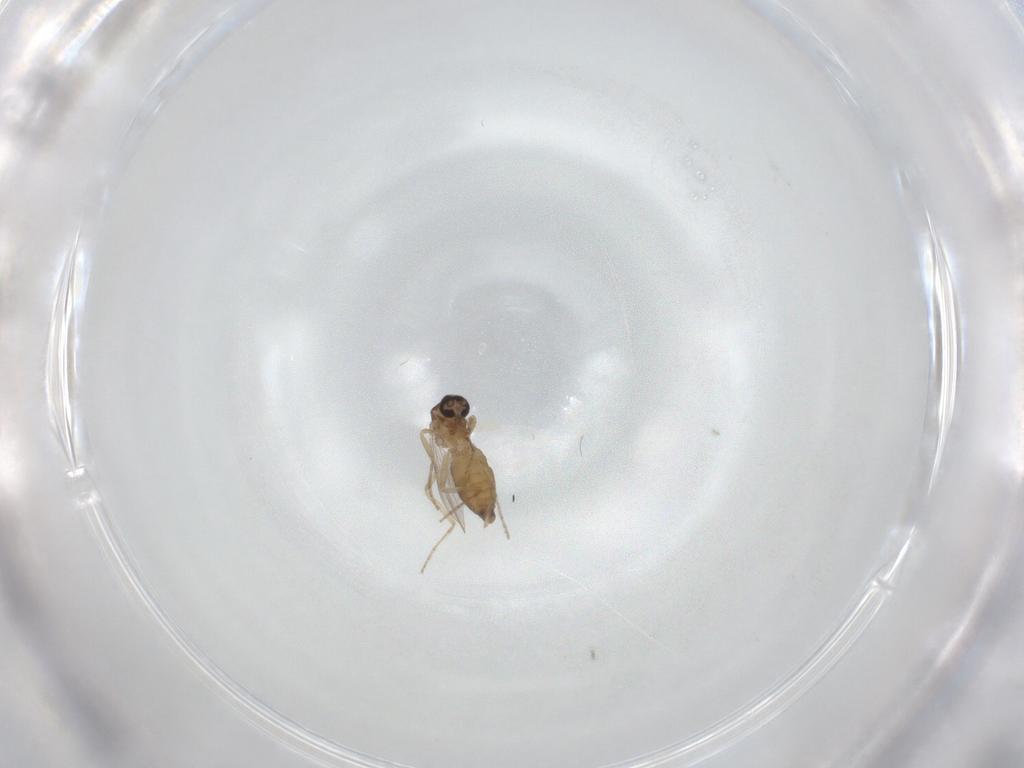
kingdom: Animalia
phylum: Arthropoda
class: Insecta
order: Diptera
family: Ceratopogonidae
